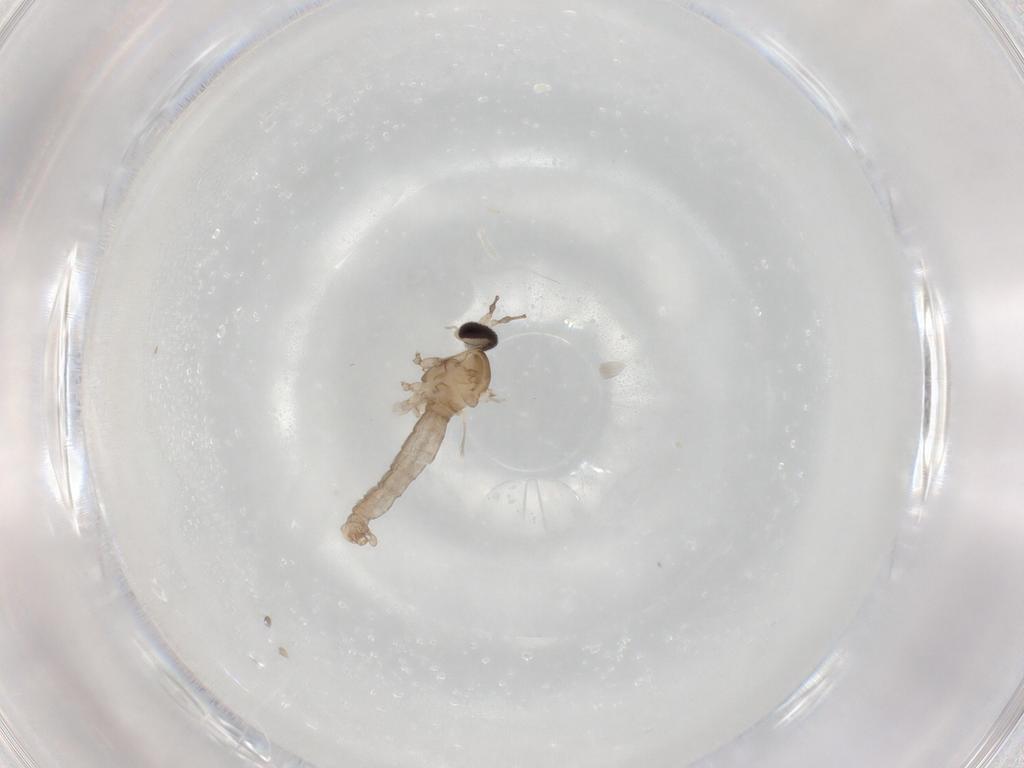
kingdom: Animalia
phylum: Arthropoda
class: Insecta
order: Diptera
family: Cecidomyiidae
